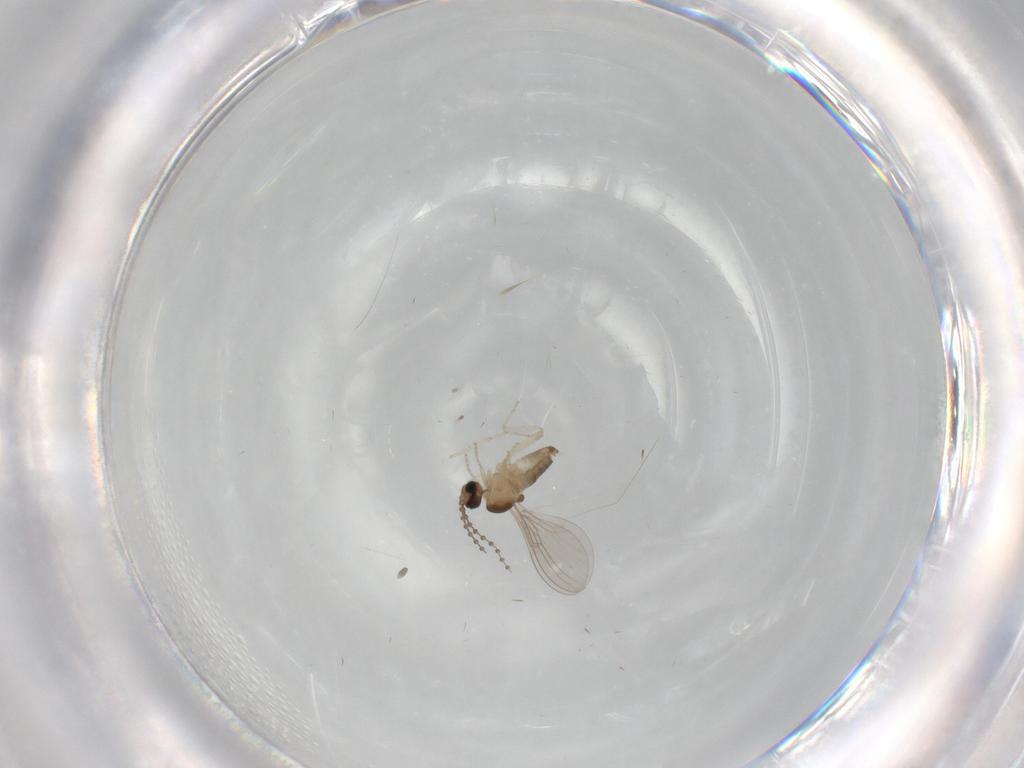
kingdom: Animalia
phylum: Arthropoda
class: Insecta
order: Diptera
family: Cecidomyiidae
